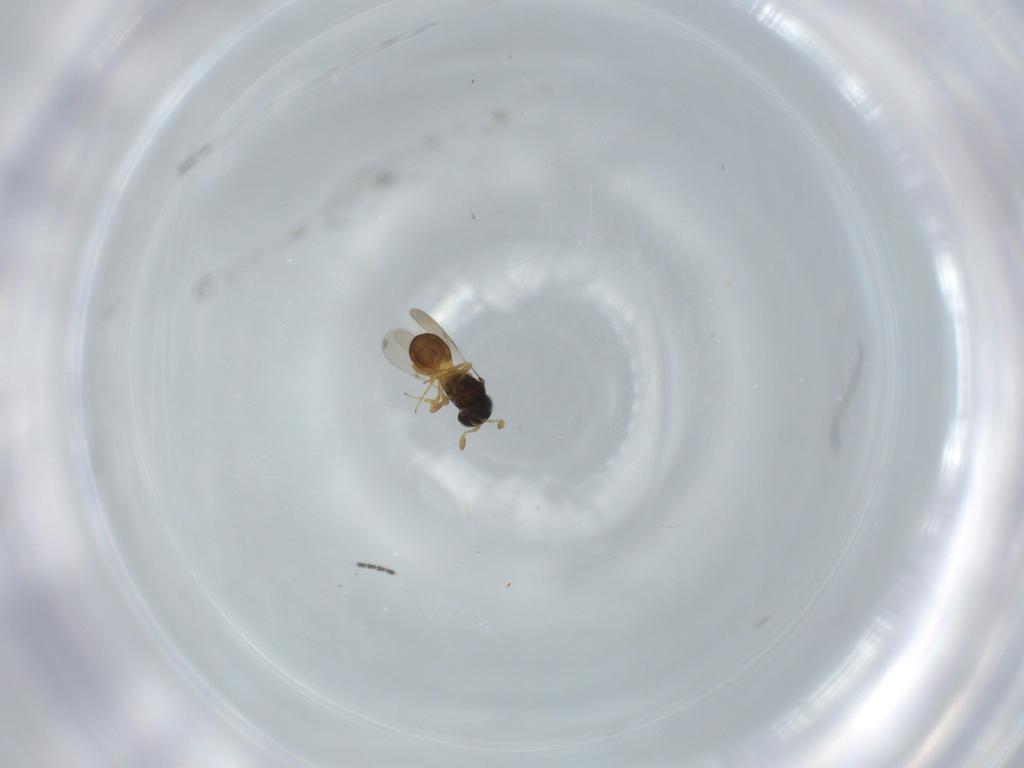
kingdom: Animalia
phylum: Arthropoda
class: Insecta
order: Hymenoptera
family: Scelionidae
